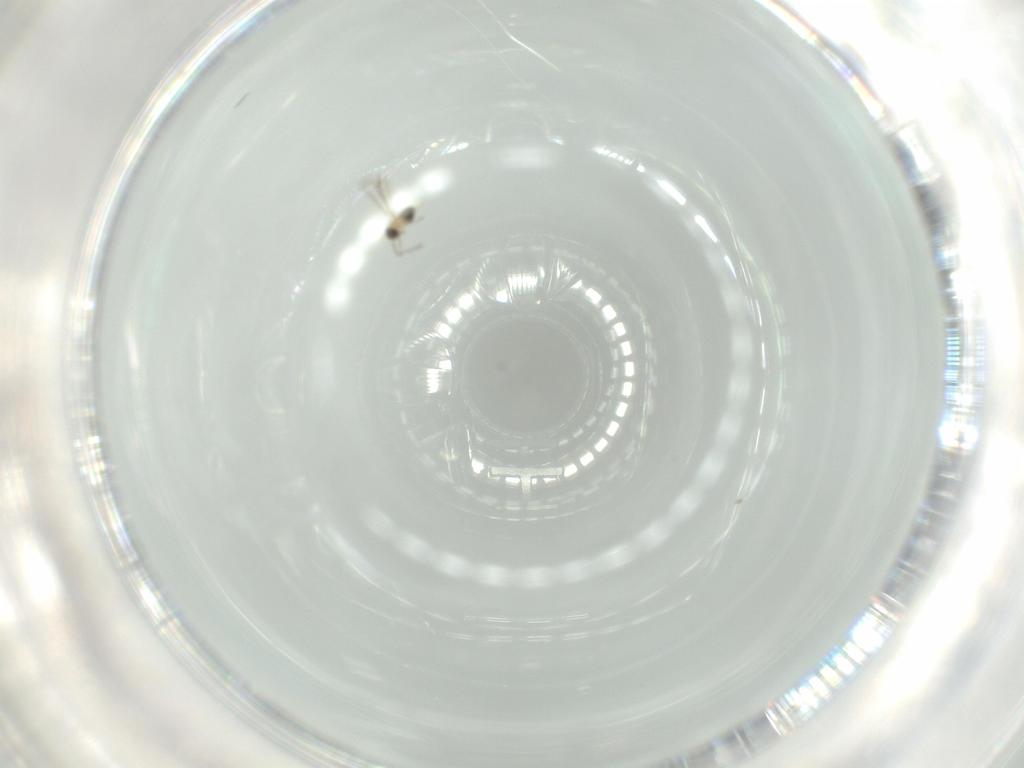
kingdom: Animalia
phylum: Arthropoda
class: Insecta
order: Hymenoptera
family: Mymaridae
